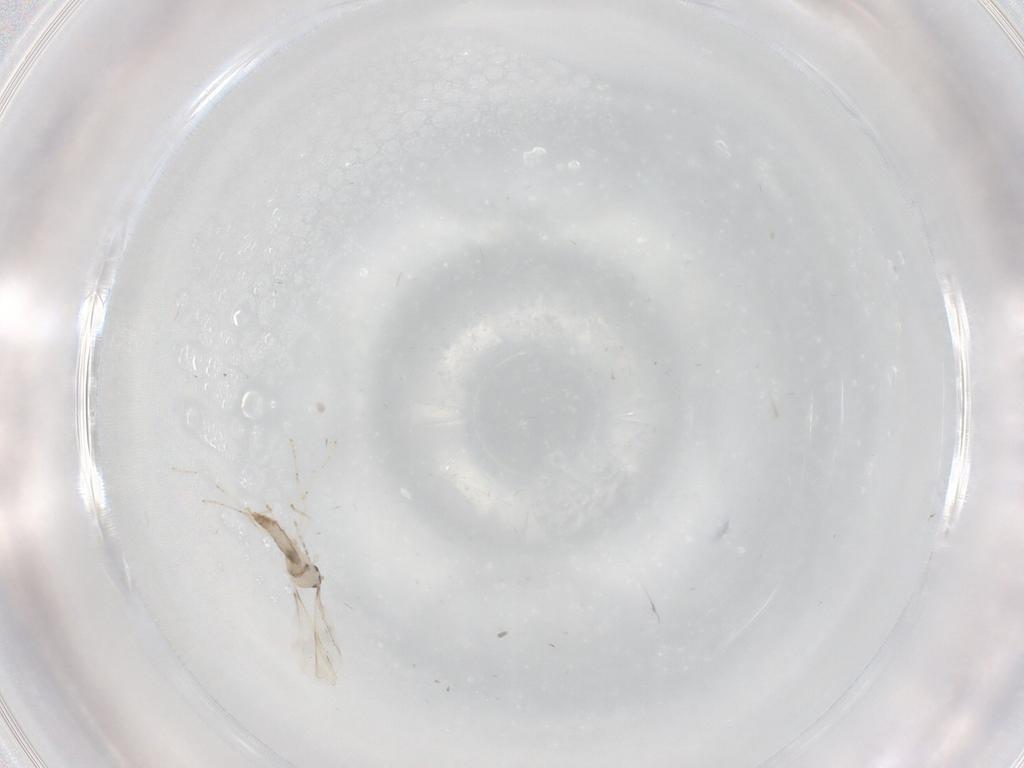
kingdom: Animalia
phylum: Arthropoda
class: Insecta
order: Diptera
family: Cecidomyiidae
